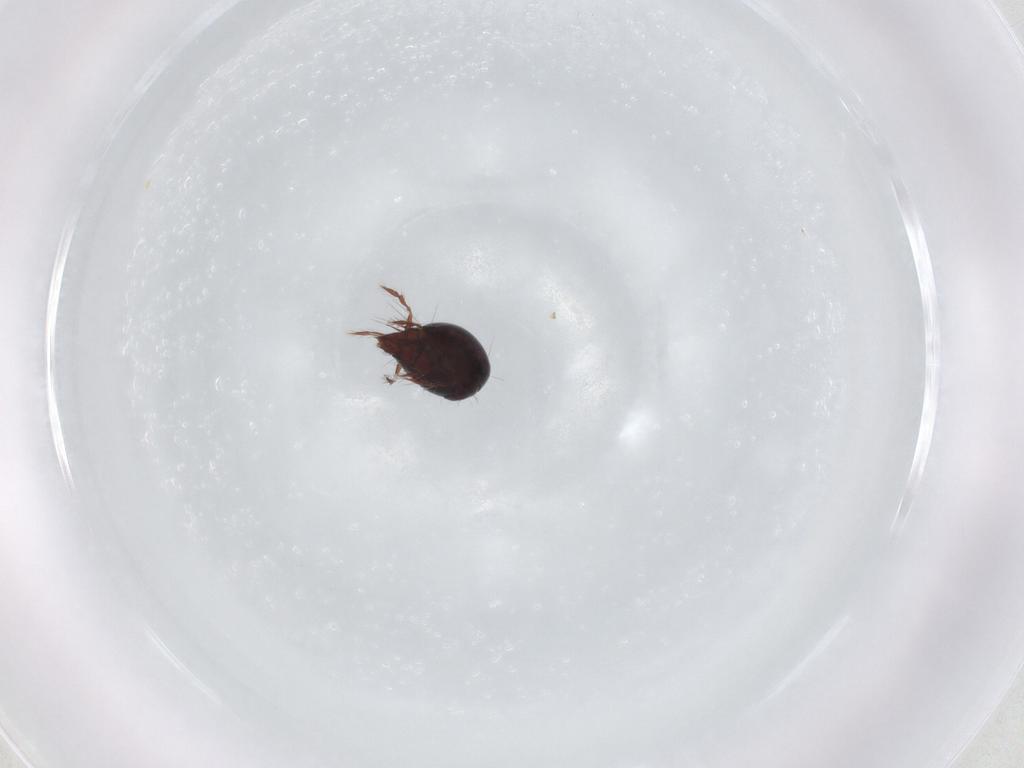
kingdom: Animalia
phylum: Arthropoda
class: Arachnida
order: Sarcoptiformes
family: Ceratoppiidae
